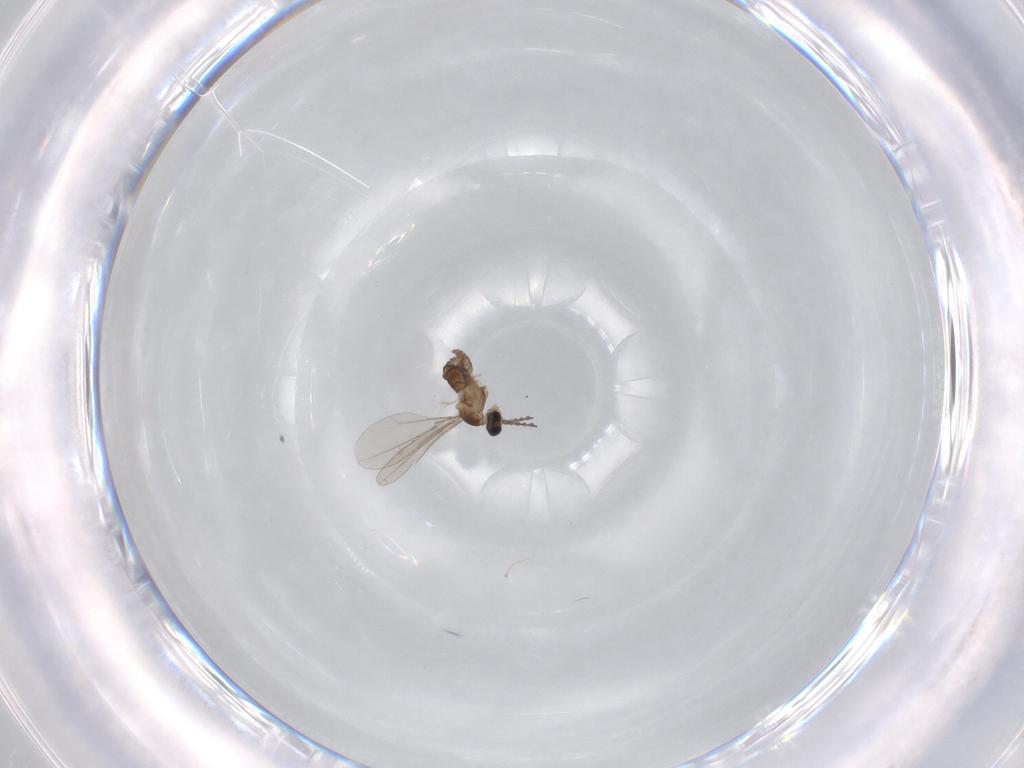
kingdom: Animalia
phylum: Arthropoda
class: Insecta
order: Diptera
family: Cecidomyiidae
